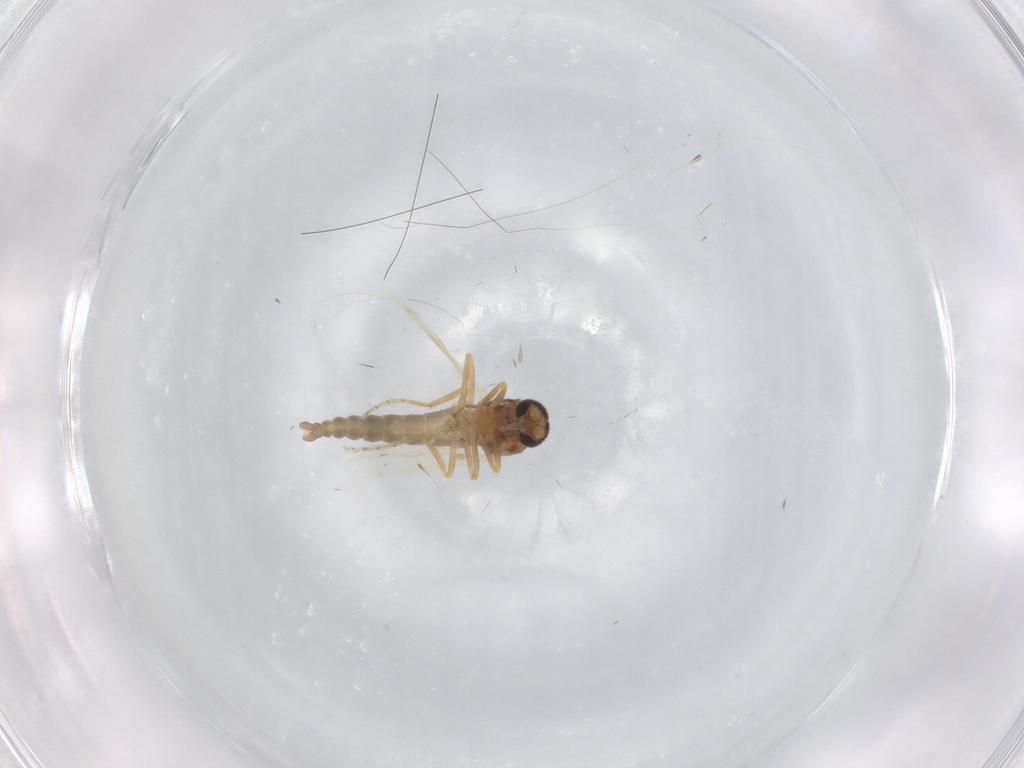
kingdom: Animalia
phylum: Arthropoda
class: Insecta
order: Diptera
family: Ceratopogonidae
